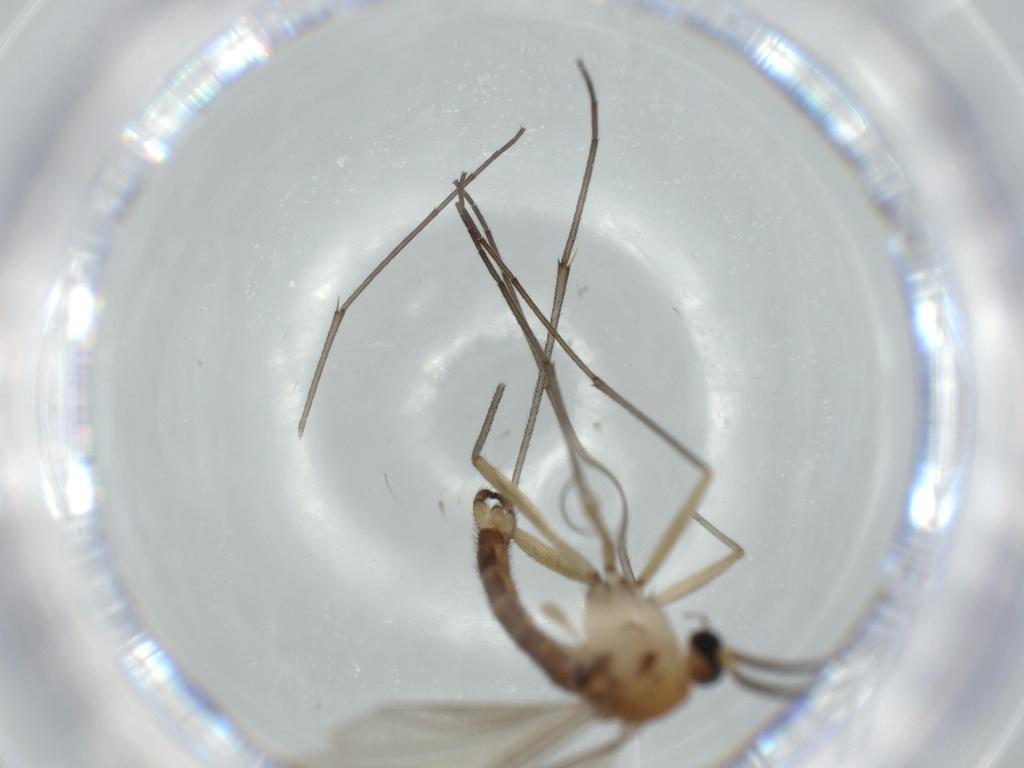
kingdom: Animalia
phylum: Arthropoda
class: Insecta
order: Diptera
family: Sciaridae
